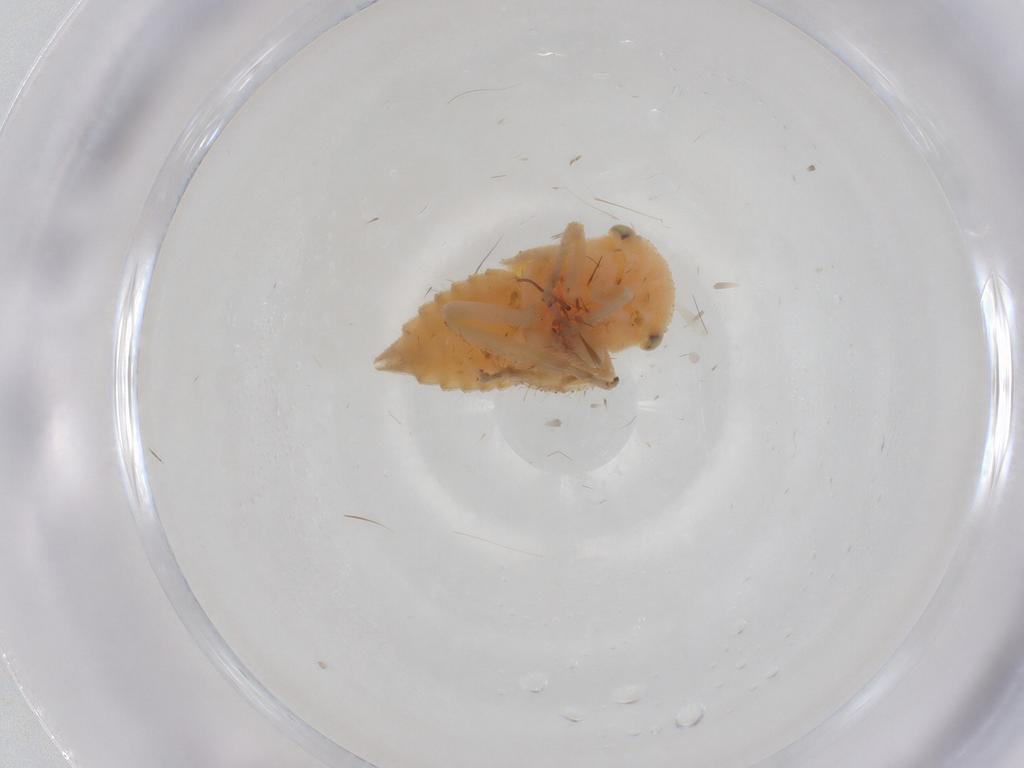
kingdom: Animalia
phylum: Arthropoda
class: Insecta
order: Hemiptera
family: Cicadellidae
